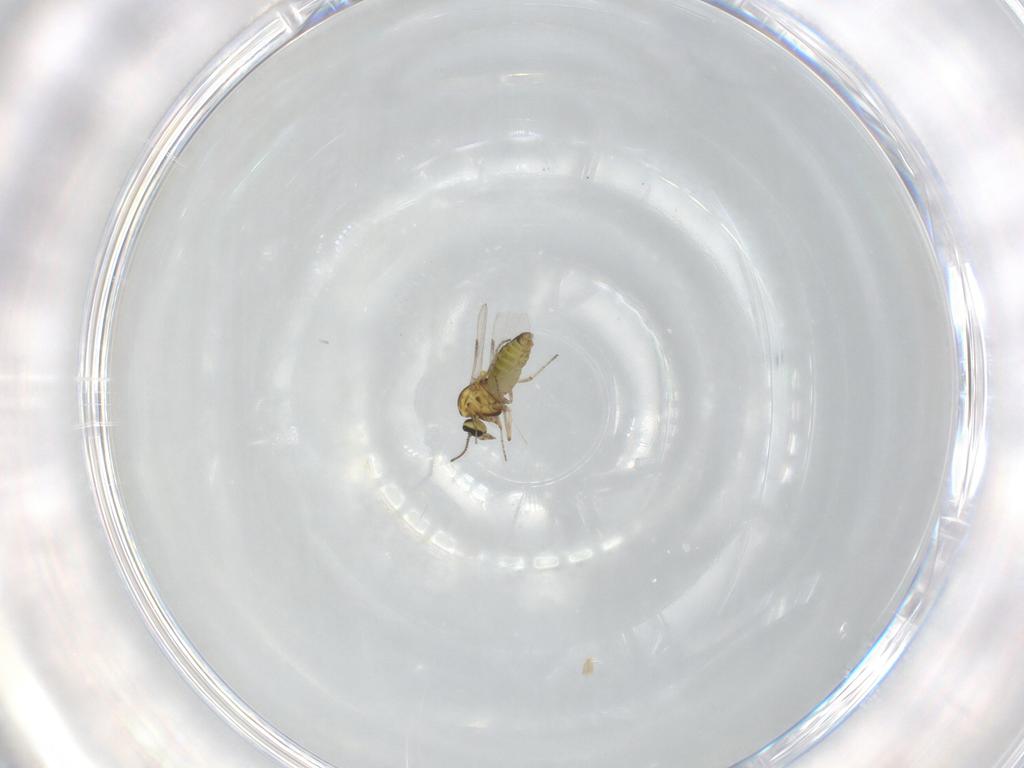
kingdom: Animalia
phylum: Arthropoda
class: Insecta
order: Diptera
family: Ceratopogonidae
